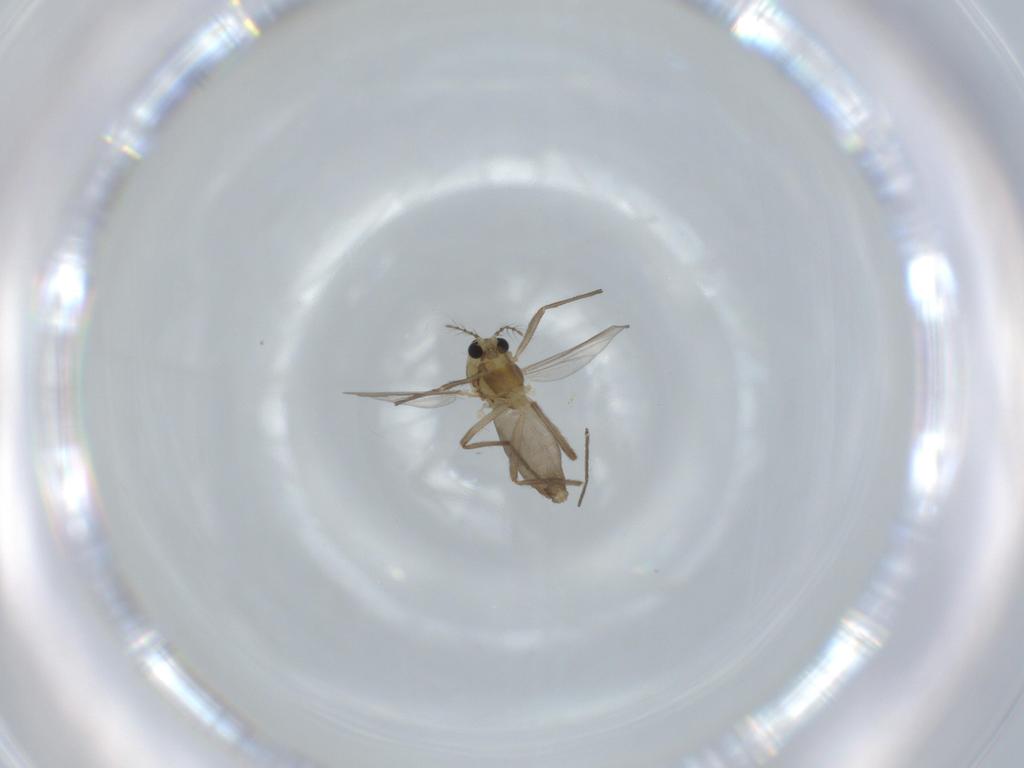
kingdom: Animalia
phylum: Arthropoda
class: Insecta
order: Diptera
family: Chironomidae
